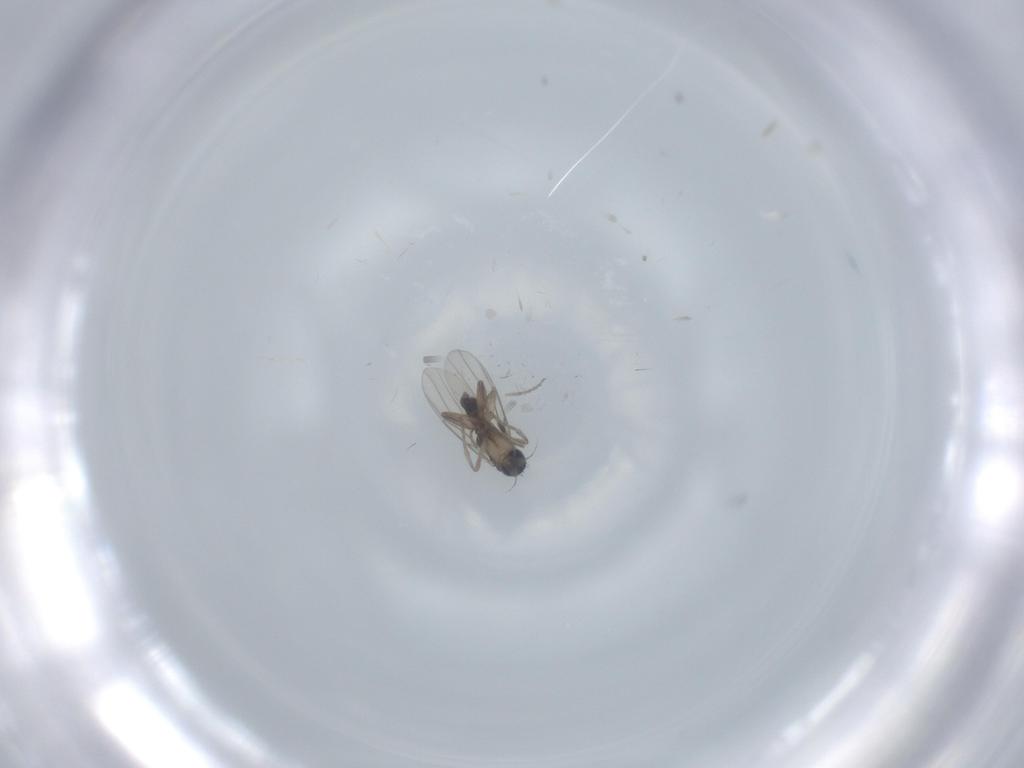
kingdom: Animalia
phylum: Arthropoda
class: Insecta
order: Diptera
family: Phoridae
